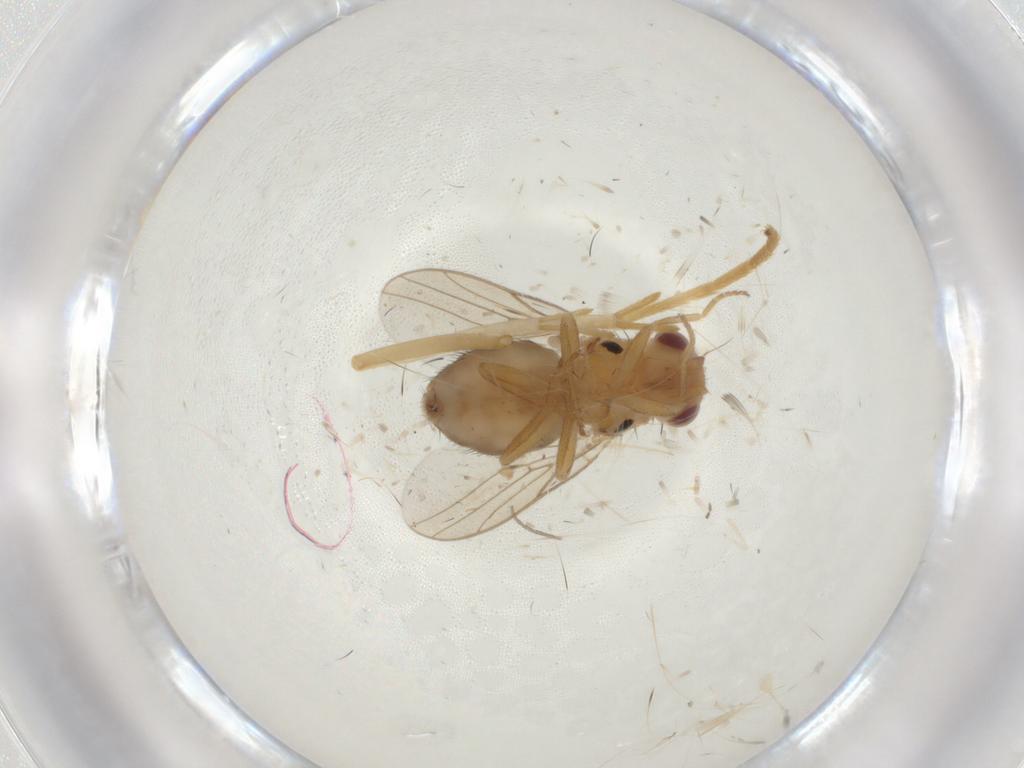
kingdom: Animalia
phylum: Arthropoda
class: Insecta
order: Diptera
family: Chloropidae
